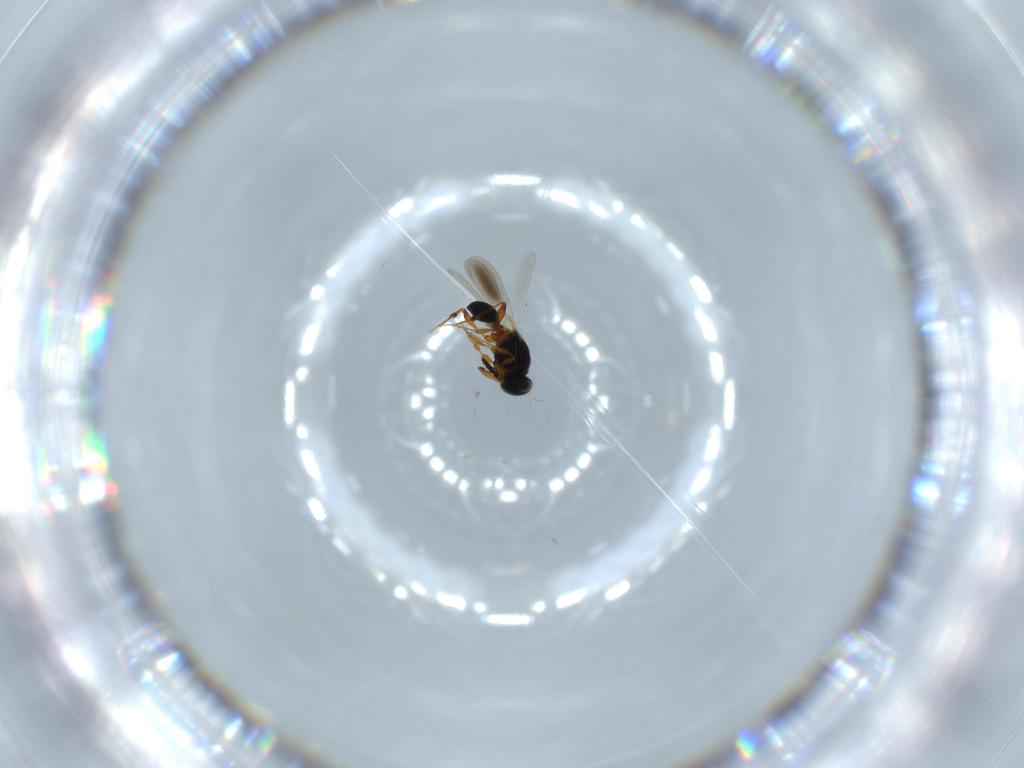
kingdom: Animalia
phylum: Arthropoda
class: Insecta
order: Hymenoptera
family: Platygastridae
